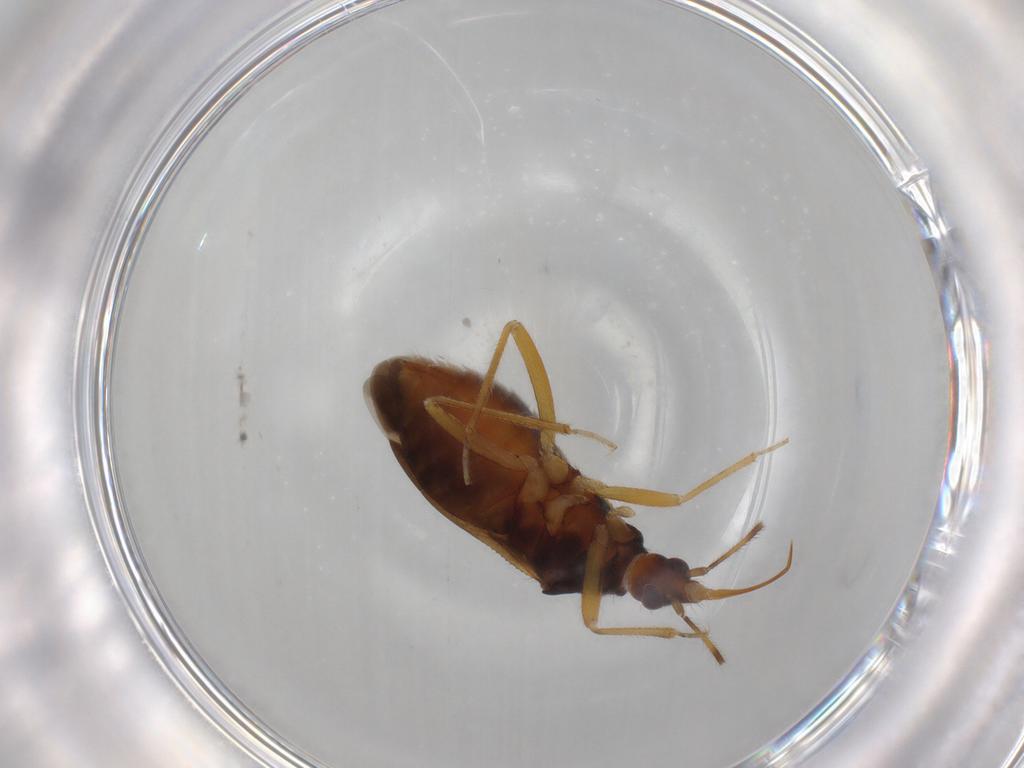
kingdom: Animalia
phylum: Arthropoda
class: Insecta
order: Hemiptera
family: Anthocoridae
